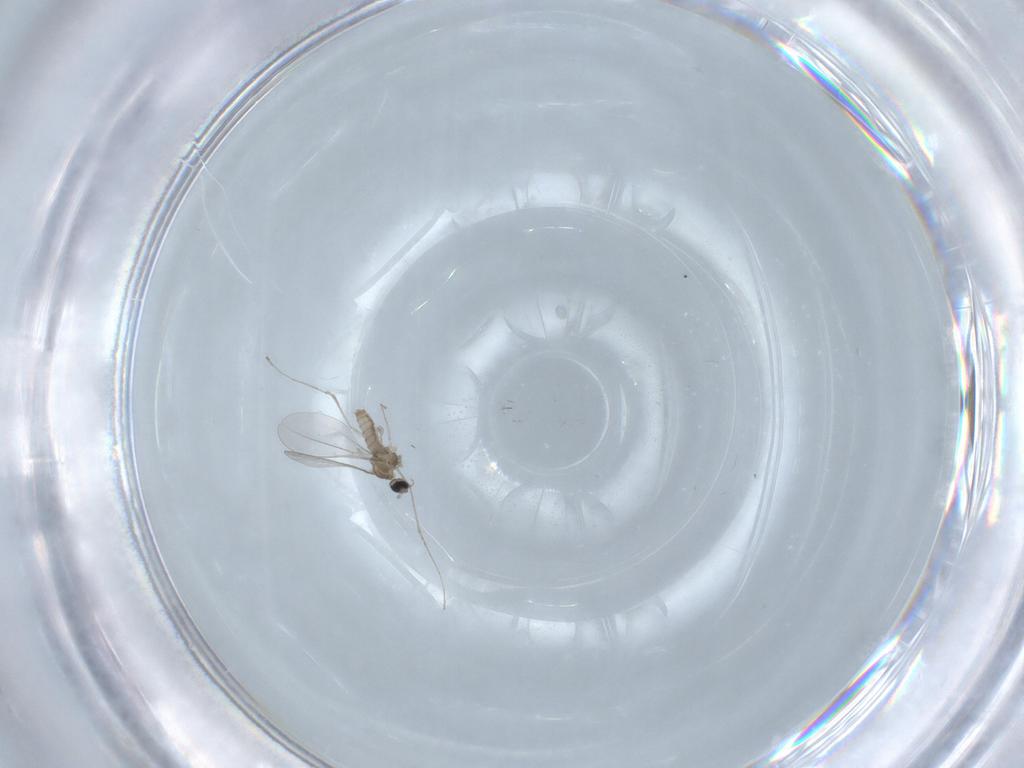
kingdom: Animalia
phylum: Arthropoda
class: Insecta
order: Diptera
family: Cecidomyiidae
